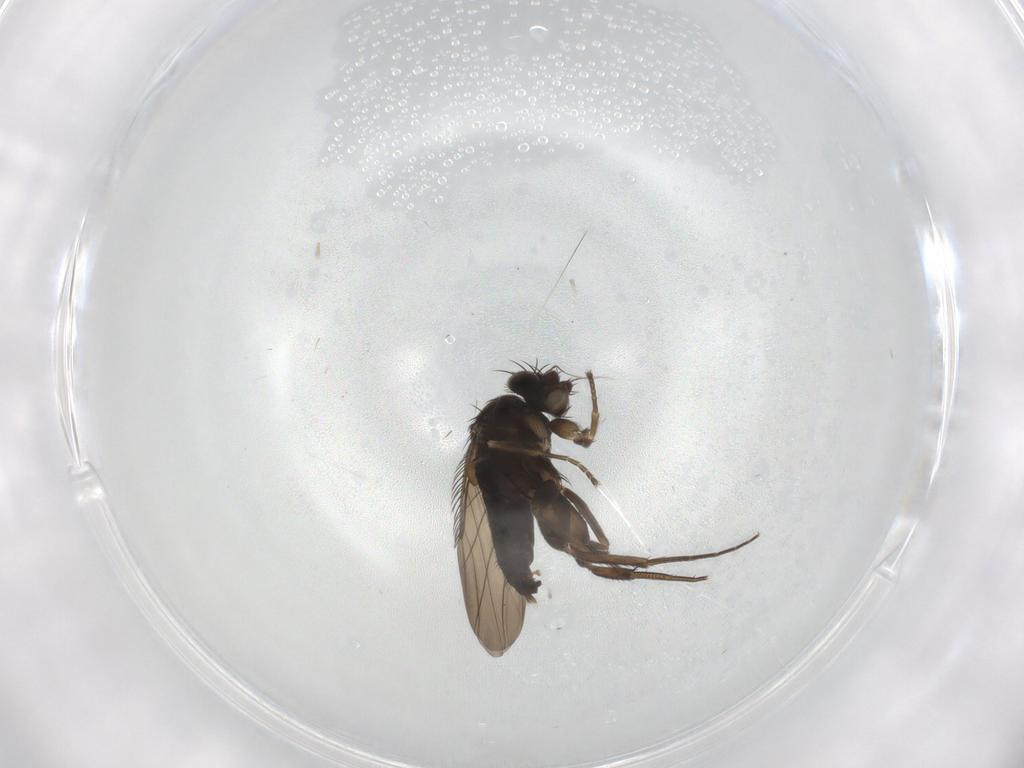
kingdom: Animalia
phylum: Arthropoda
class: Insecta
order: Diptera
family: Phoridae
